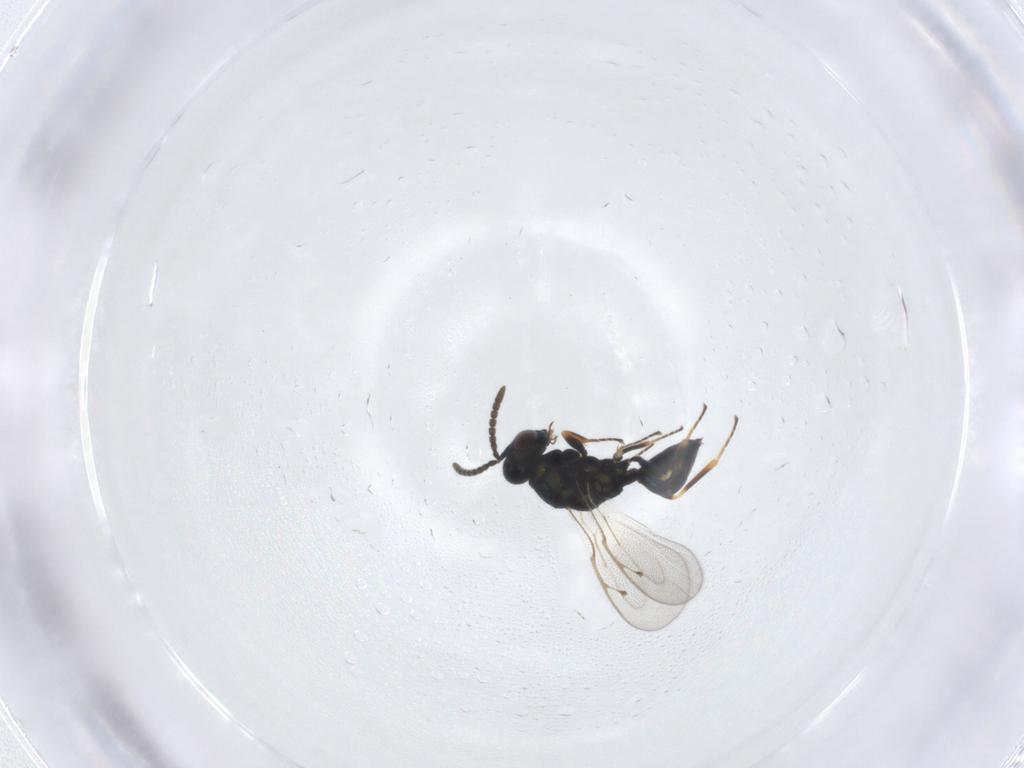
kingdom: Animalia
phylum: Arthropoda
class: Insecta
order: Hymenoptera
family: Pteromalidae
